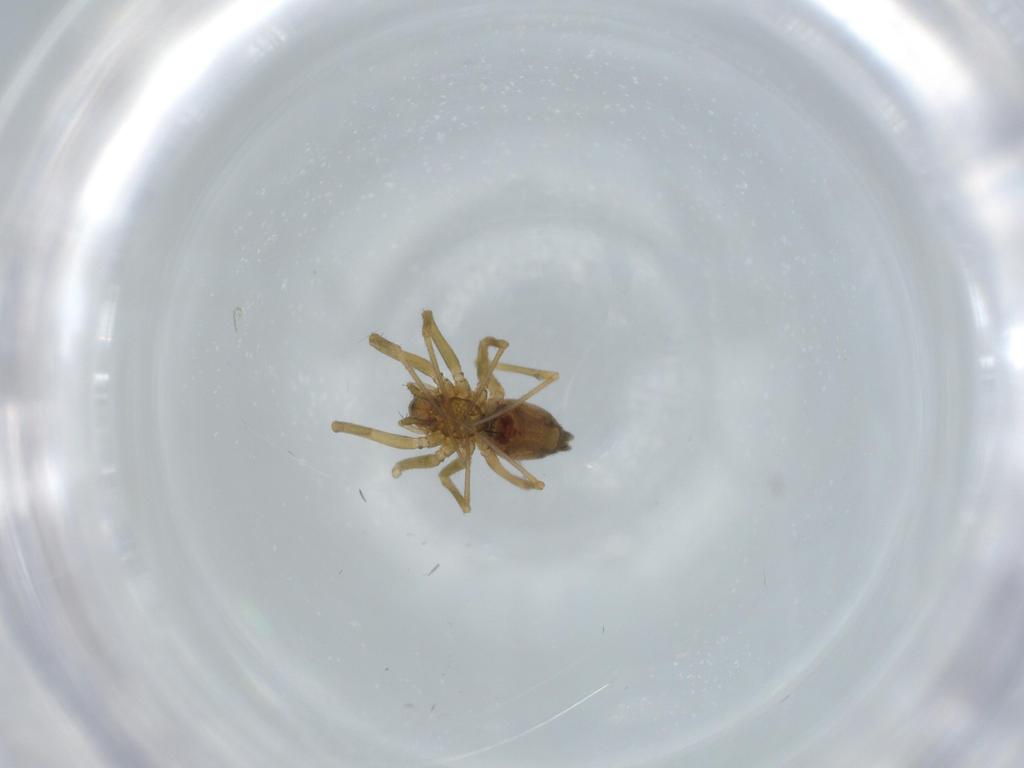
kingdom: Animalia
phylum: Arthropoda
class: Arachnida
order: Araneae
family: Linyphiidae
